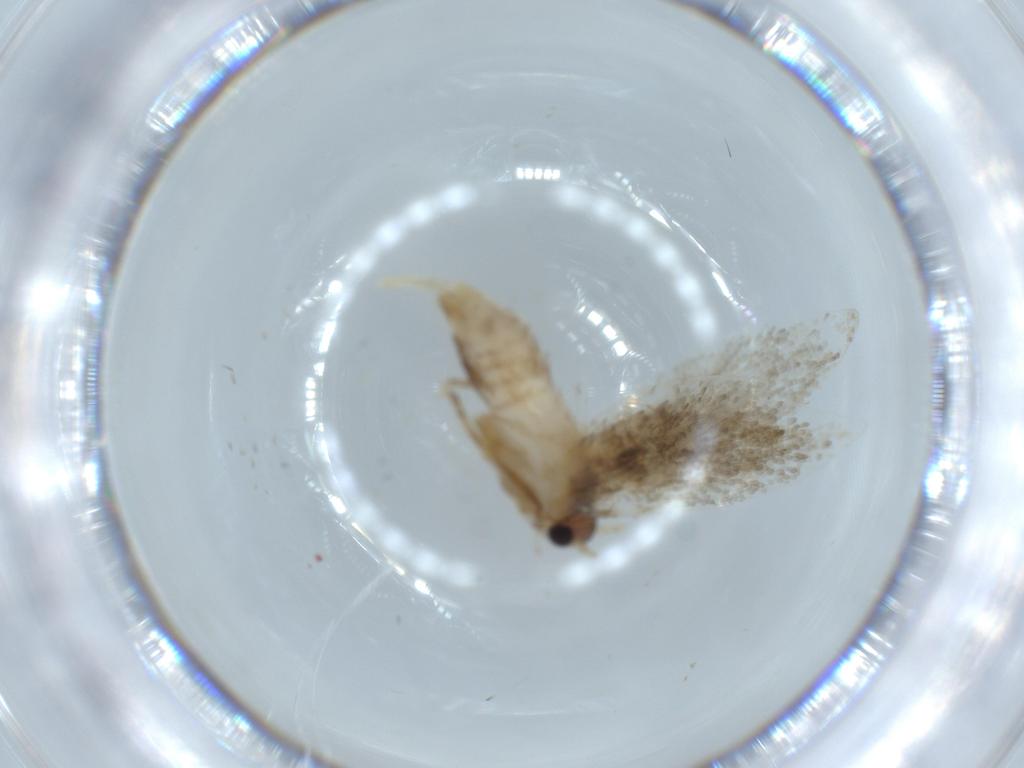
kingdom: Animalia
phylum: Arthropoda
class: Insecta
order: Lepidoptera
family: Tineidae
